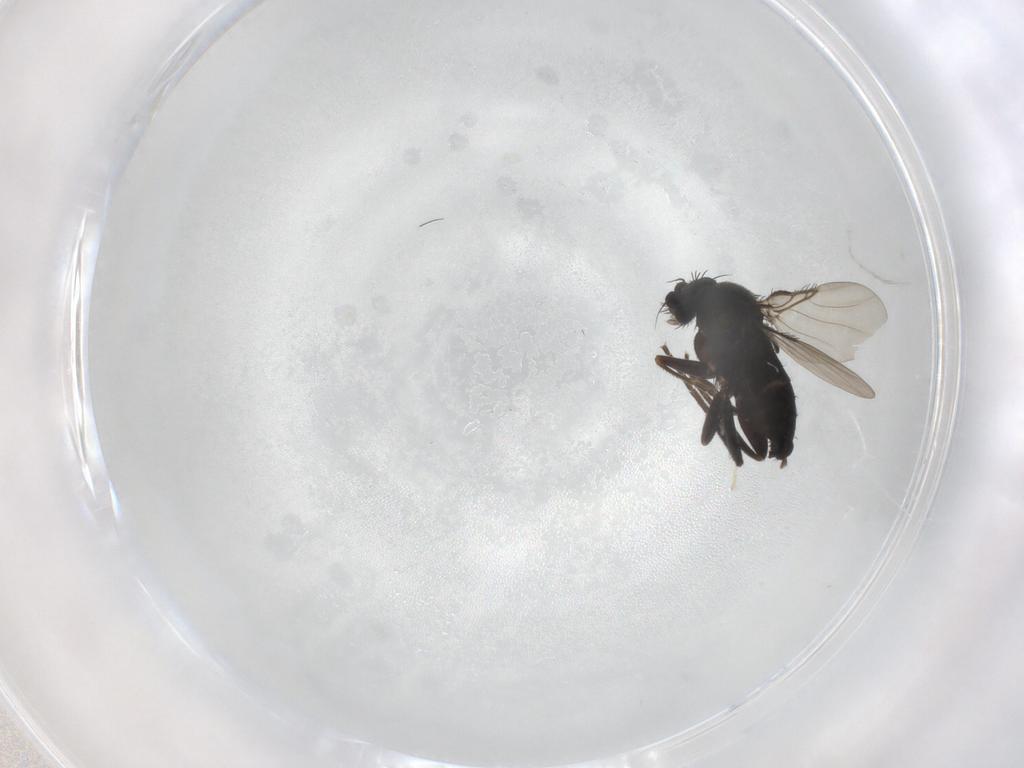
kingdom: Animalia
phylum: Arthropoda
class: Insecta
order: Diptera
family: Phoridae
